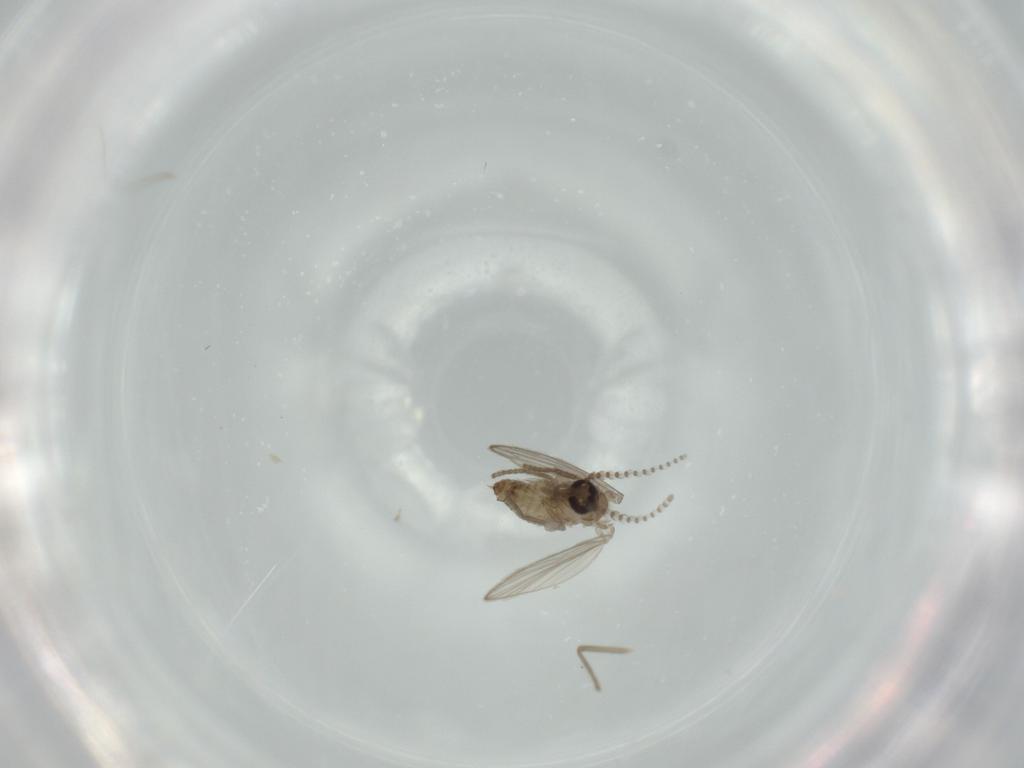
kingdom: Animalia
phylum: Arthropoda
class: Insecta
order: Diptera
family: Chironomidae
